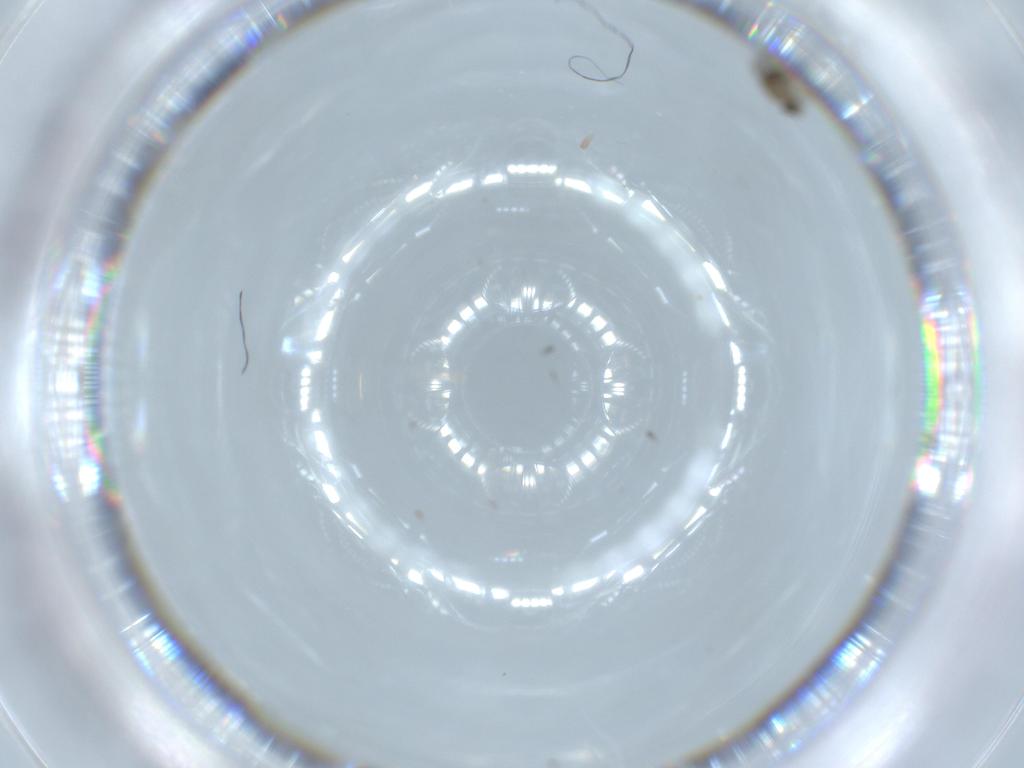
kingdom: Animalia
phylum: Arthropoda
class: Insecta
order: Diptera
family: Phoridae
